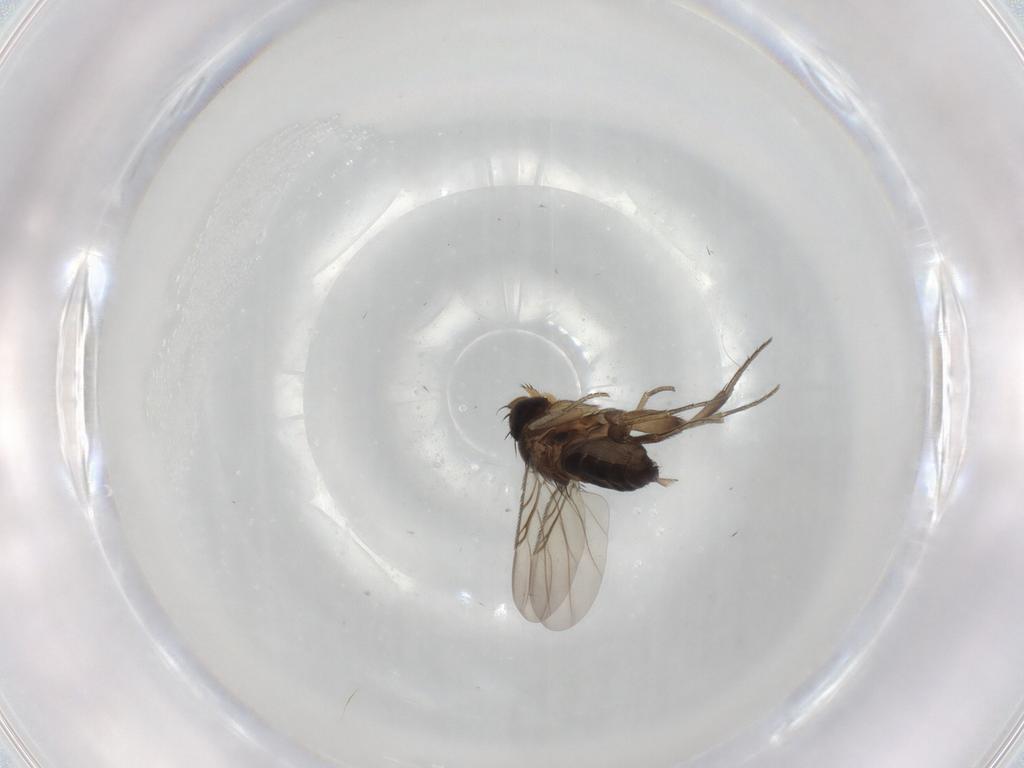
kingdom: Animalia
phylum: Arthropoda
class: Insecta
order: Diptera
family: Phoridae
